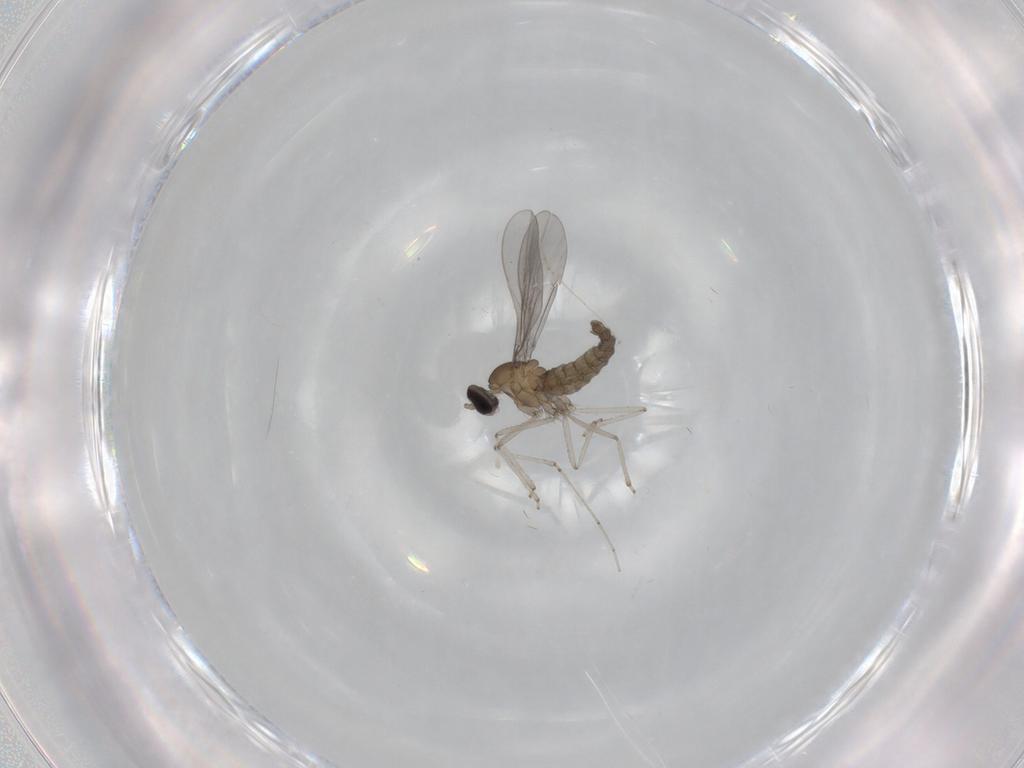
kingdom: Animalia
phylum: Arthropoda
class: Insecta
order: Diptera
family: Cecidomyiidae
